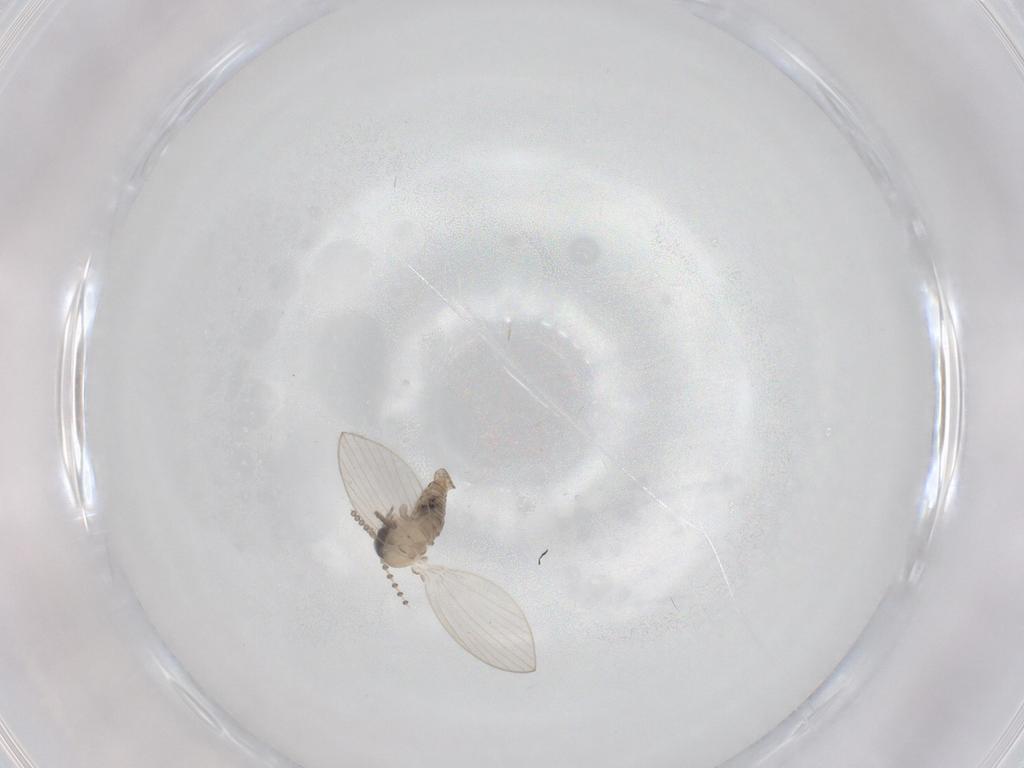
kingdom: Animalia
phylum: Arthropoda
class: Insecta
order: Diptera
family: Psychodidae
